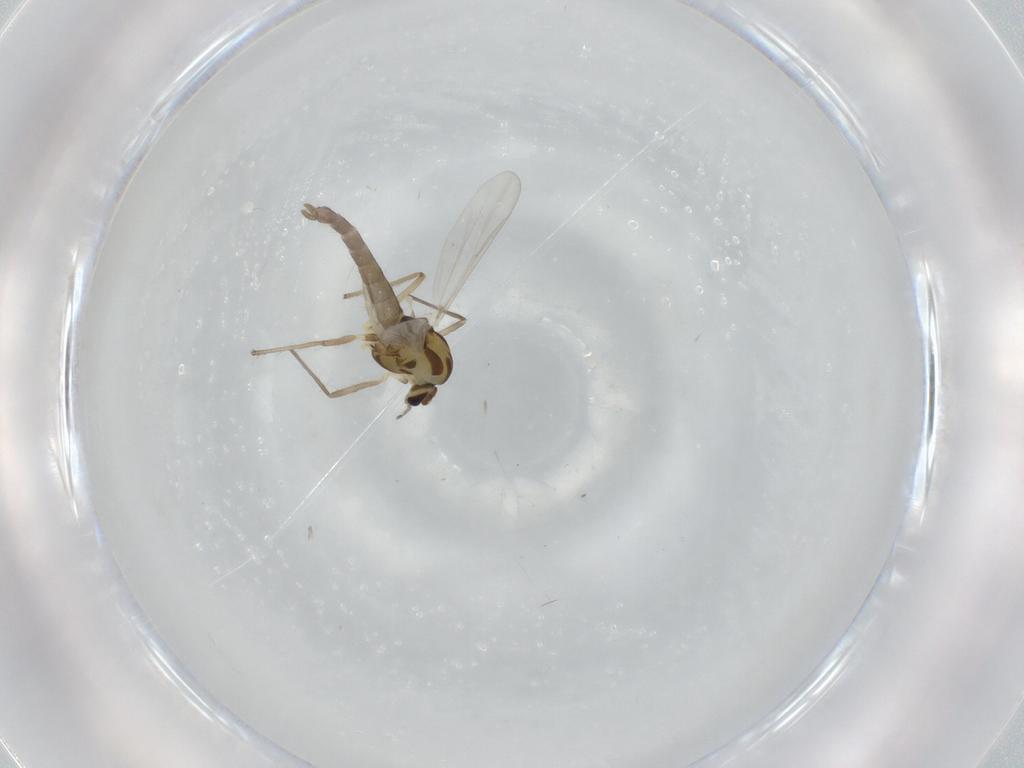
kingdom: Animalia
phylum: Arthropoda
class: Insecta
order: Diptera
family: Chironomidae
